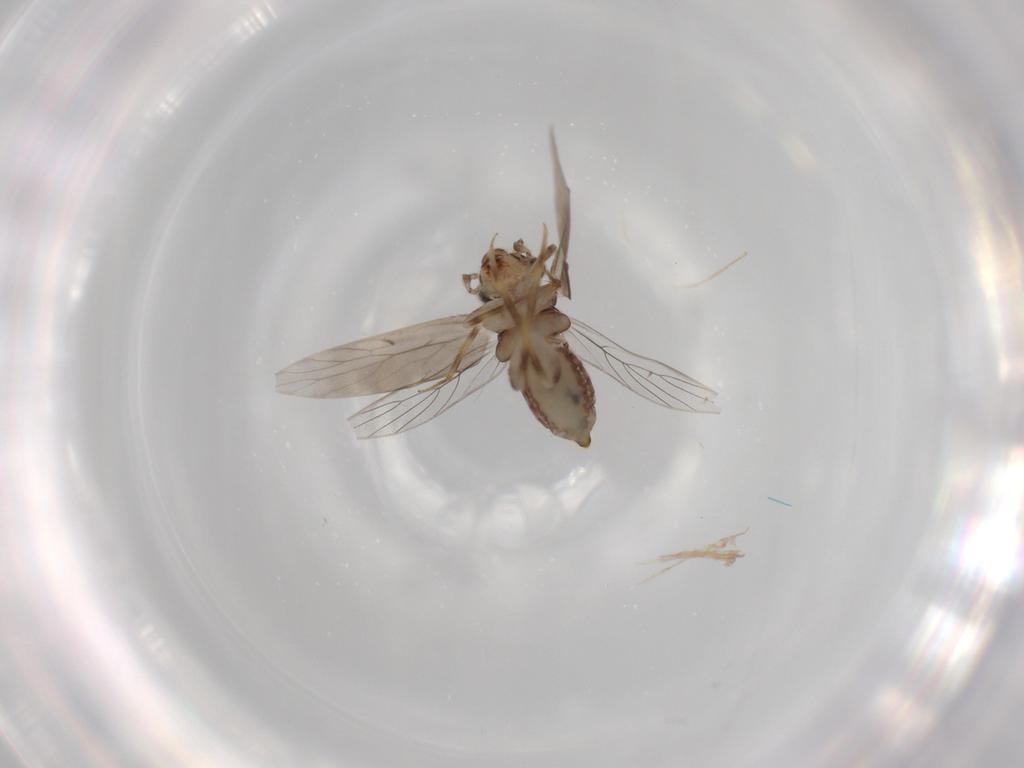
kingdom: Animalia
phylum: Arthropoda
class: Insecta
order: Psocodea
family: Lepidopsocidae
